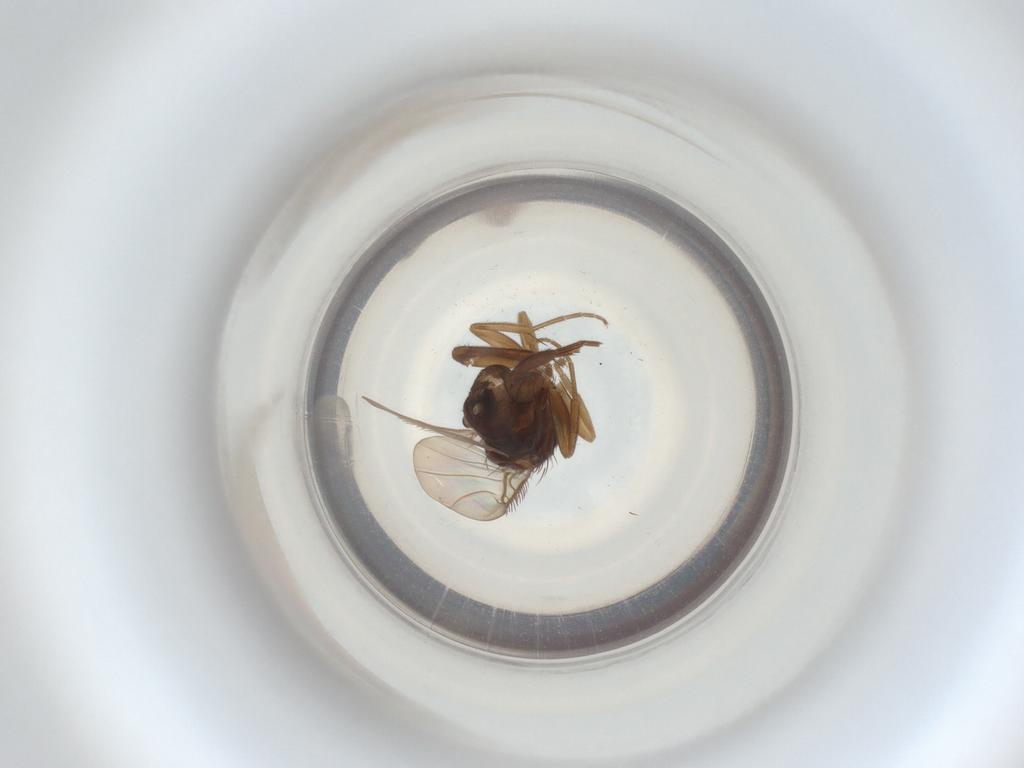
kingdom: Animalia
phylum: Arthropoda
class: Insecta
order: Diptera
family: Phoridae
